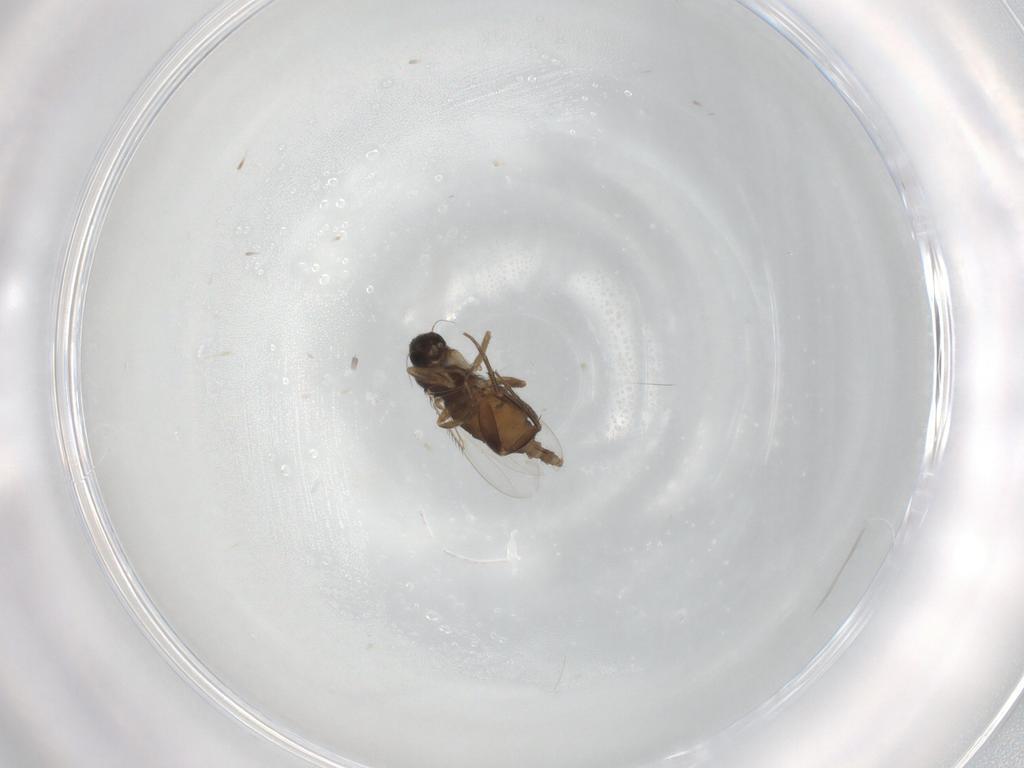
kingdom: Animalia
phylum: Arthropoda
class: Insecta
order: Diptera
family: Phoridae
